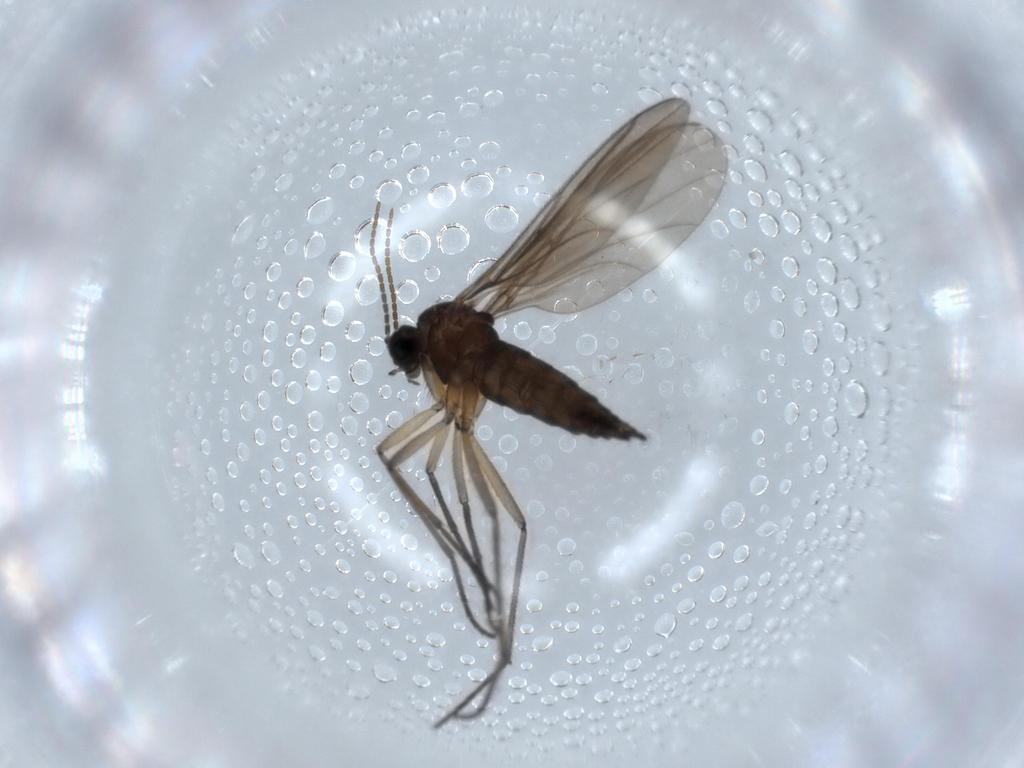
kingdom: Animalia
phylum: Arthropoda
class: Insecta
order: Diptera
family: Sciaridae
